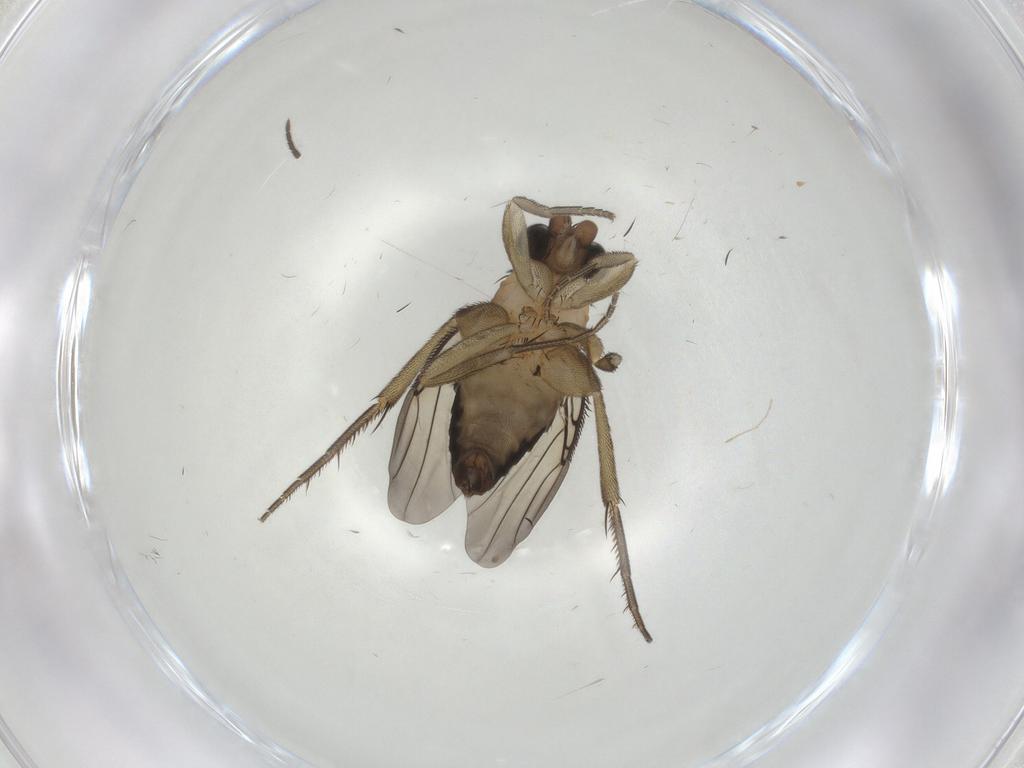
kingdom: Animalia
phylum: Arthropoda
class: Insecta
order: Diptera
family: Phoridae
